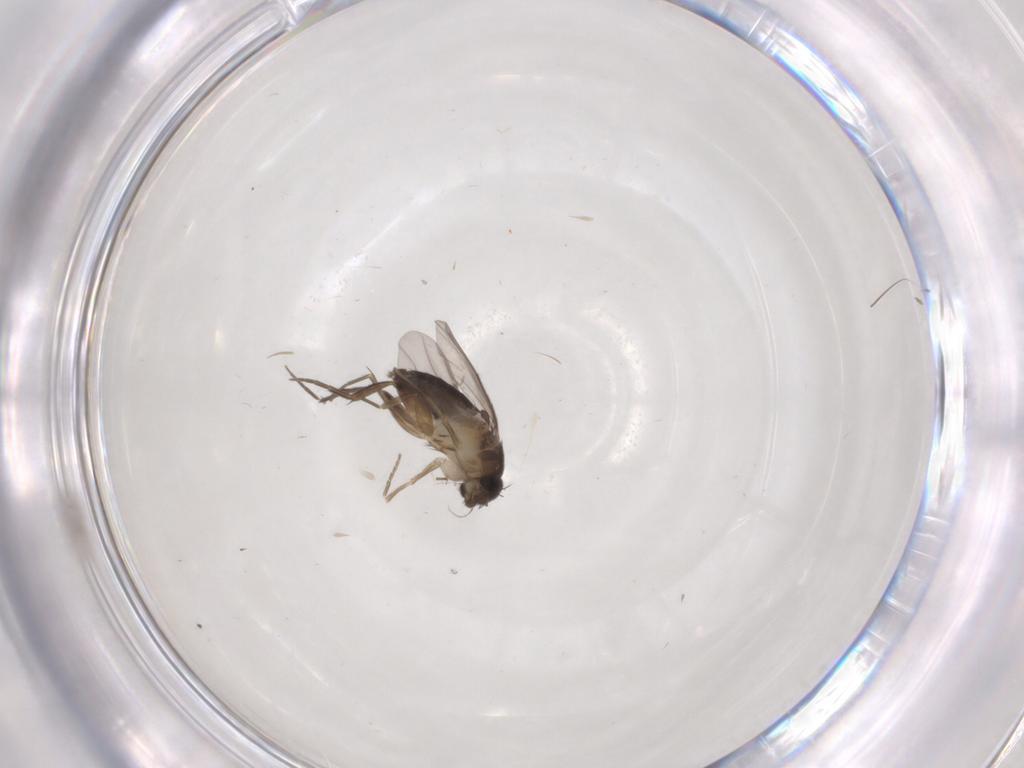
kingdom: Animalia
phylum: Arthropoda
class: Insecta
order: Diptera
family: Phoridae
